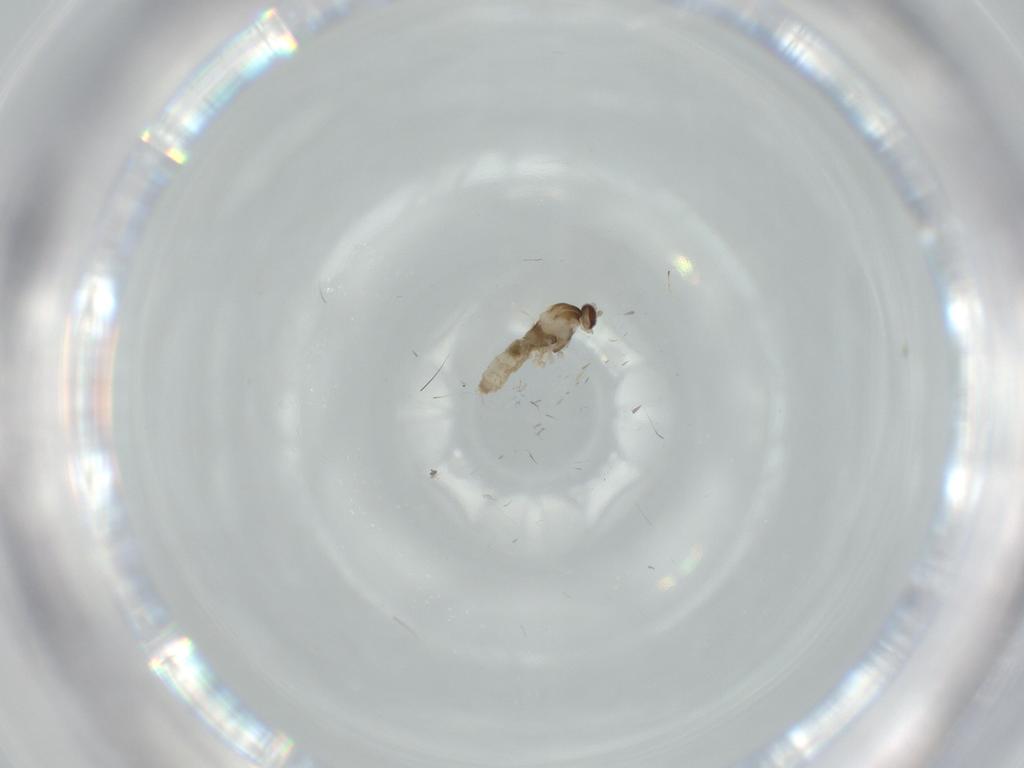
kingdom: Animalia
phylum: Arthropoda
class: Insecta
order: Diptera
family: Cecidomyiidae
